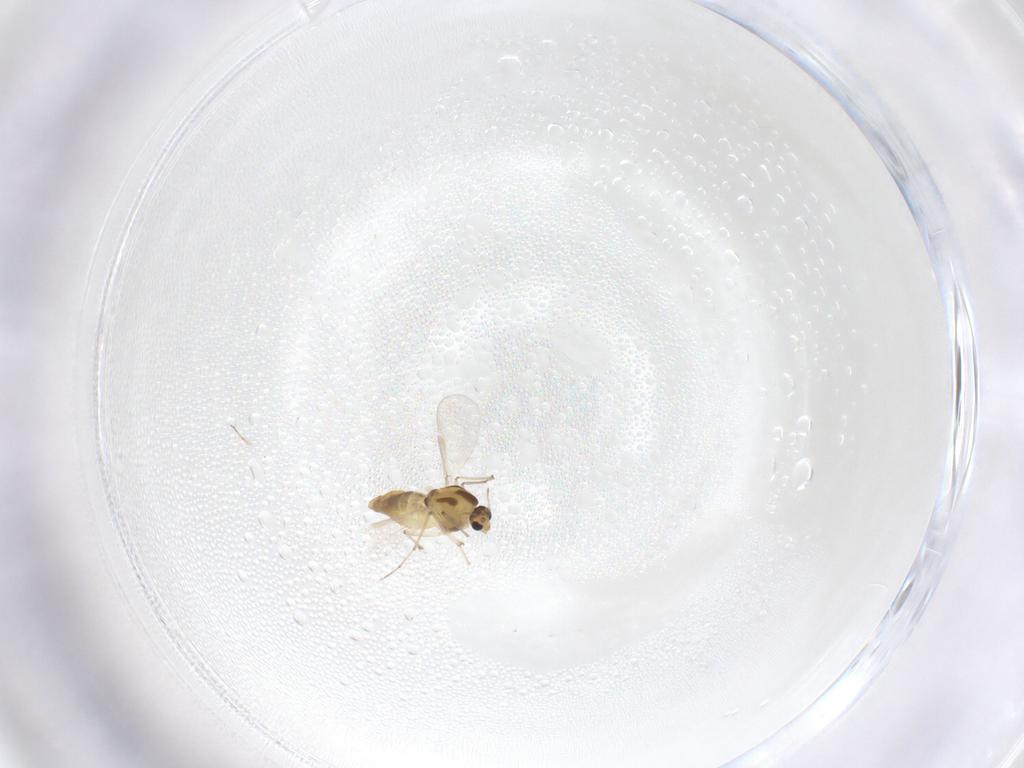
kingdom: Animalia
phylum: Arthropoda
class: Insecta
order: Diptera
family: Chironomidae
